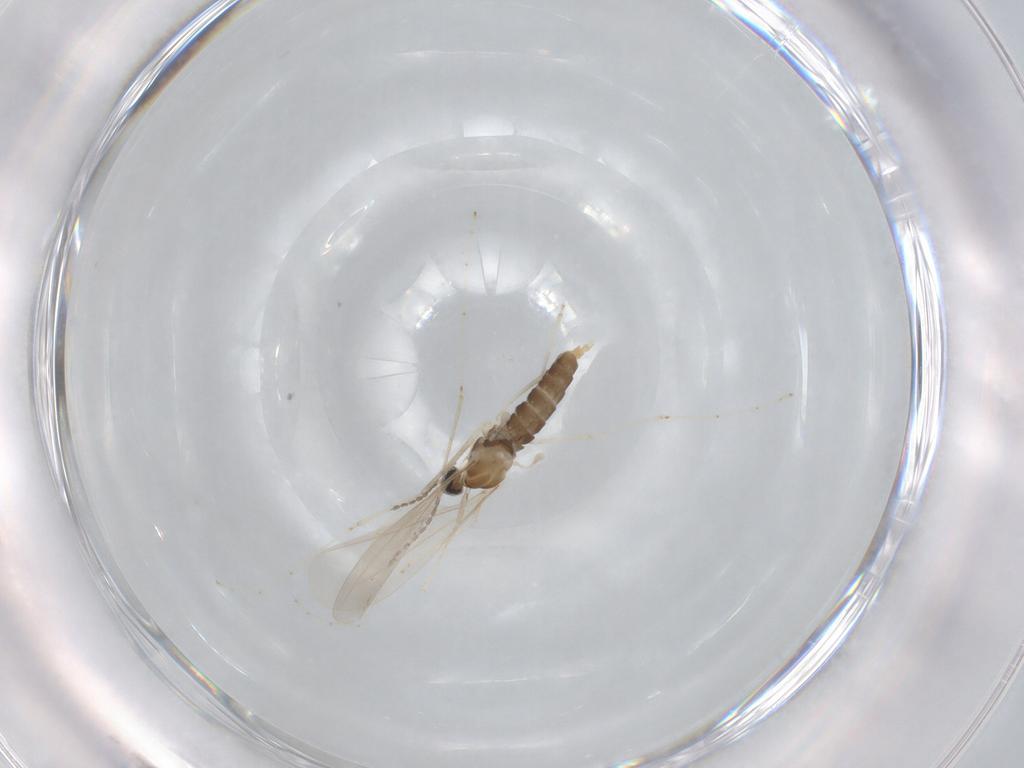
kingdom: Animalia
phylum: Arthropoda
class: Insecta
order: Diptera
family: Cecidomyiidae
